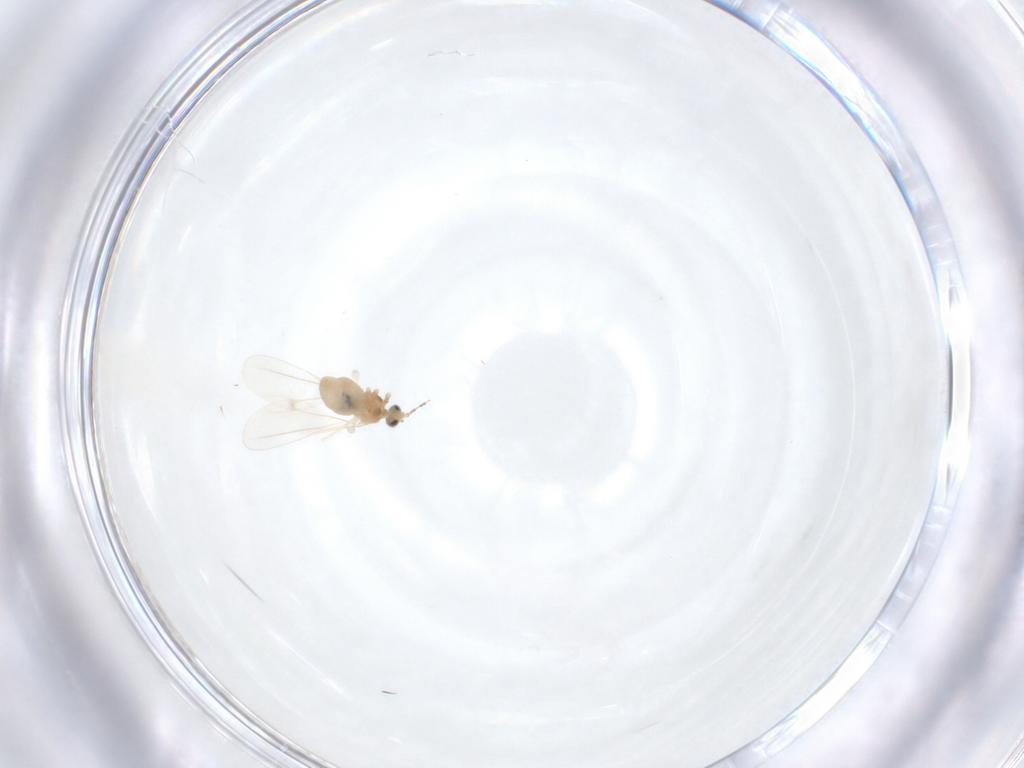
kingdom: Animalia
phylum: Arthropoda
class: Insecta
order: Diptera
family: Cecidomyiidae
